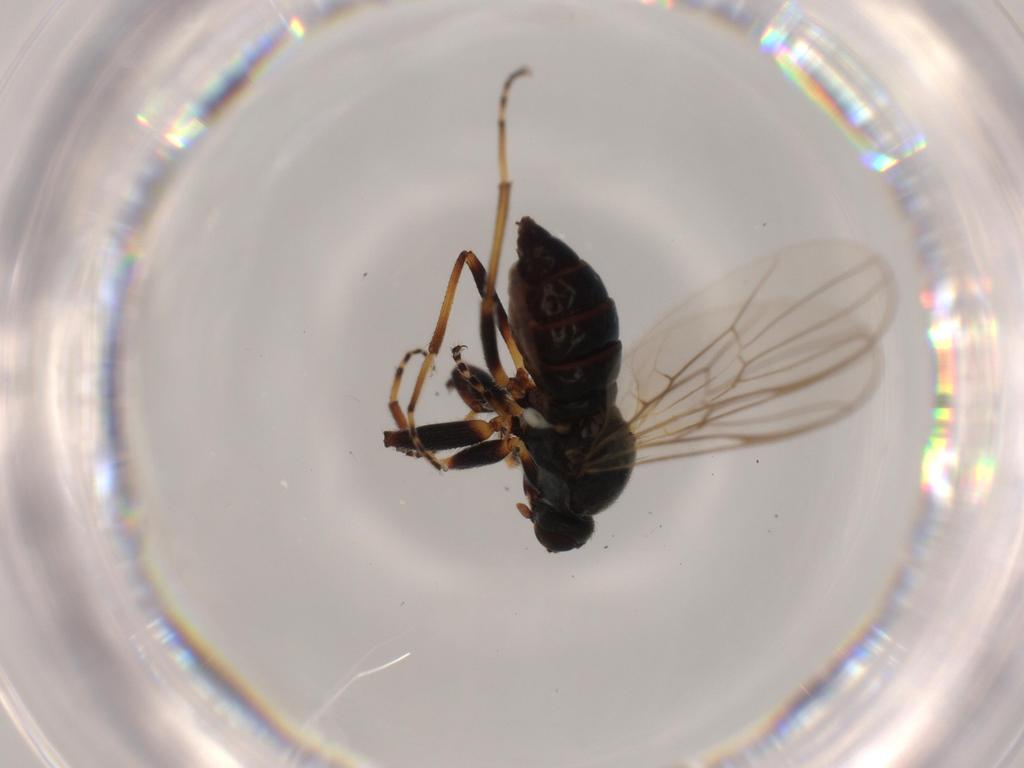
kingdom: Animalia
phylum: Arthropoda
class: Insecta
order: Diptera
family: Hybotidae
